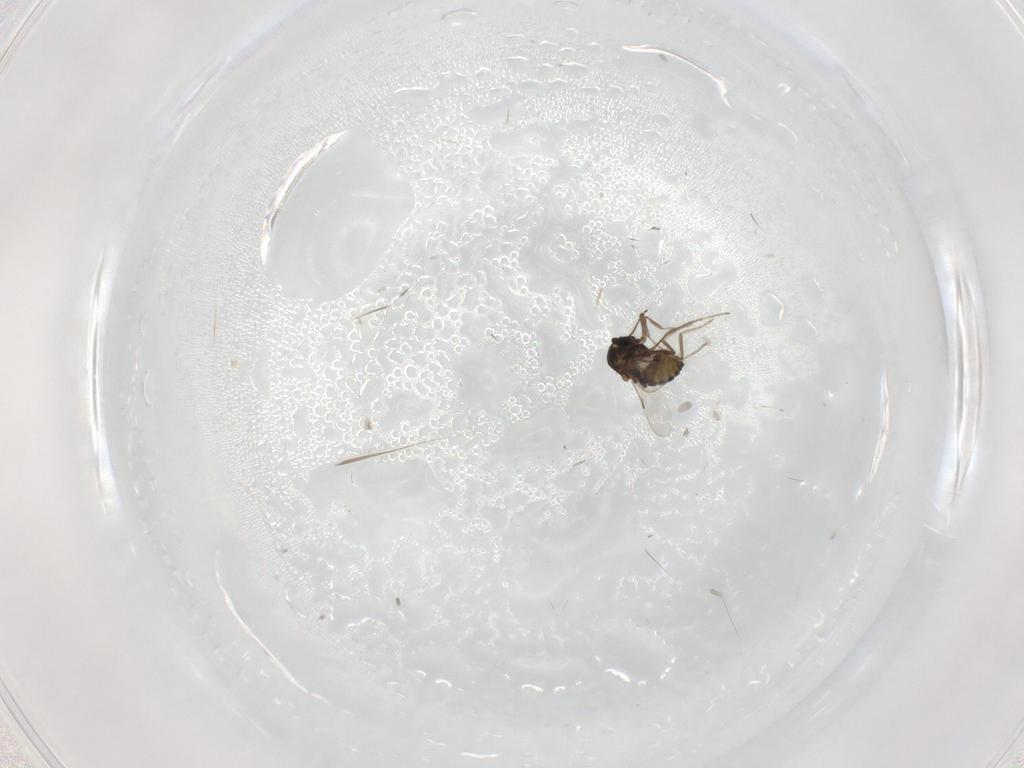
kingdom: Animalia
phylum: Arthropoda
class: Insecta
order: Diptera
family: Ceratopogonidae
